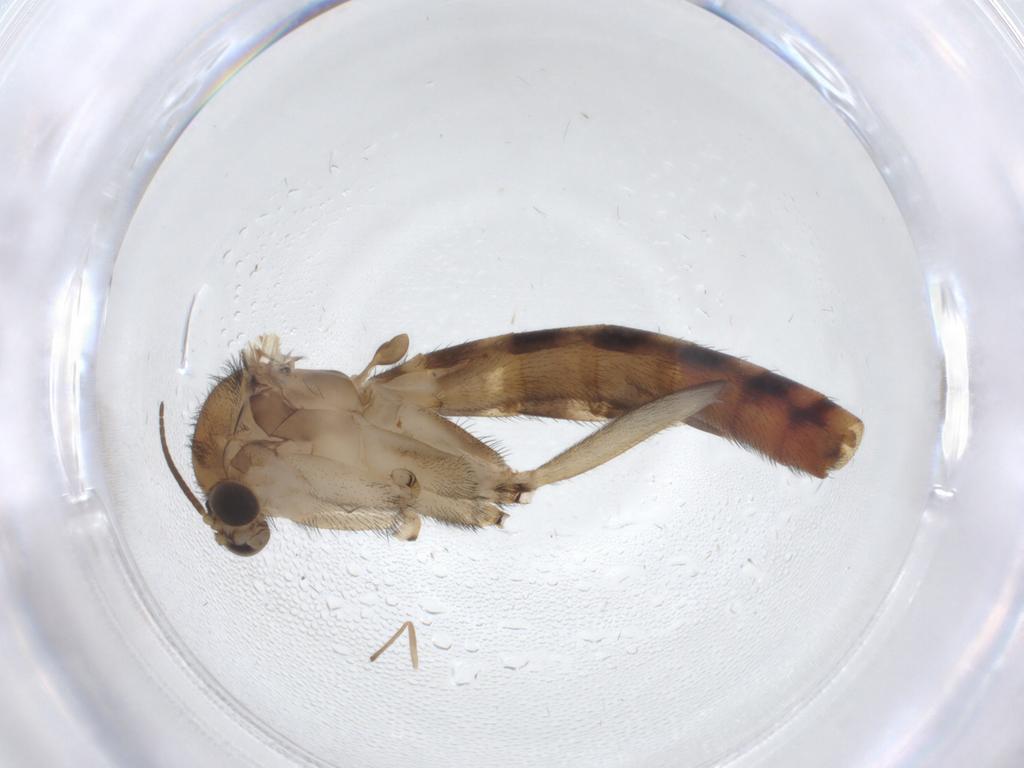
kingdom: Animalia
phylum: Arthropoda
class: Insecta
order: Diptera
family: Phoridae
